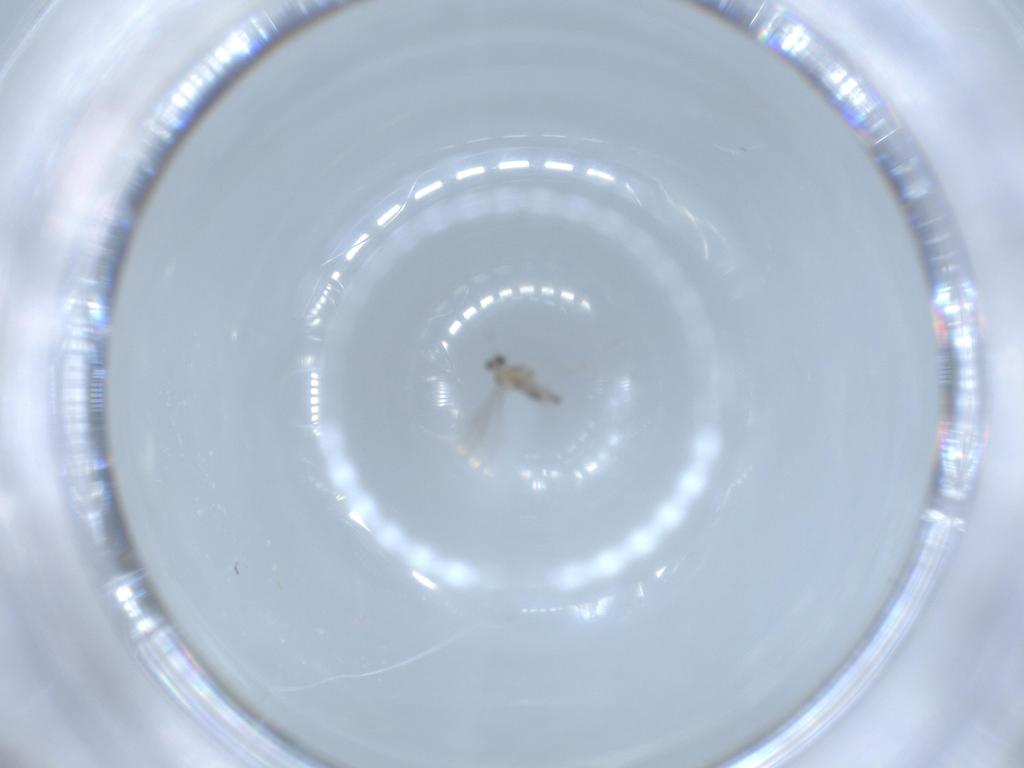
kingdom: Animalia
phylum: Arthropoda
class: Insecta
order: Diptera
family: Cecidomyiidae
